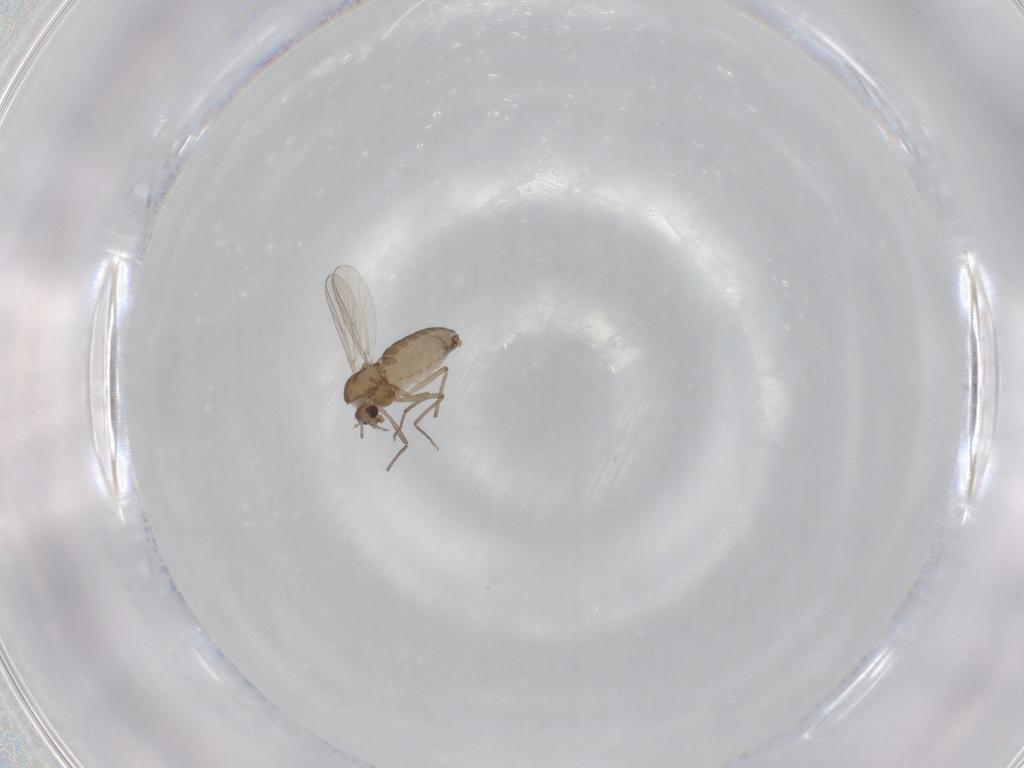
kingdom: Animalia
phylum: Arthropoda
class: Insecta
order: Diptera
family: Chironomidae
